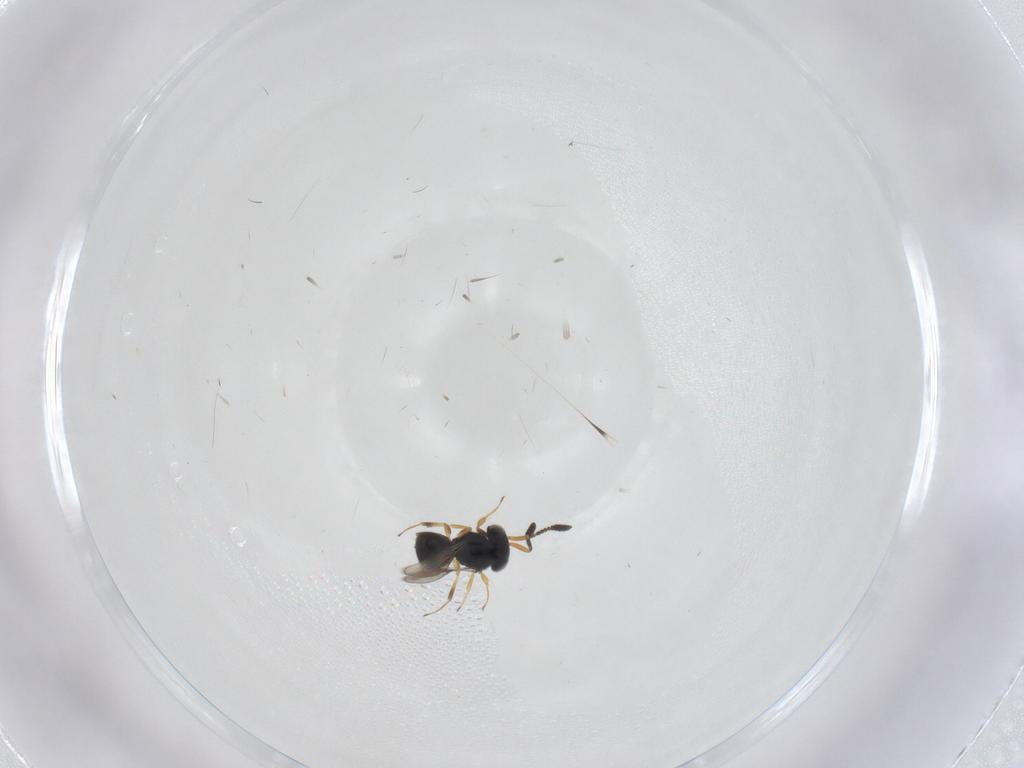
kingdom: Animalia
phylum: Arthropoda
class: Insecta
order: Hymenoptera
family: Scelionidae
